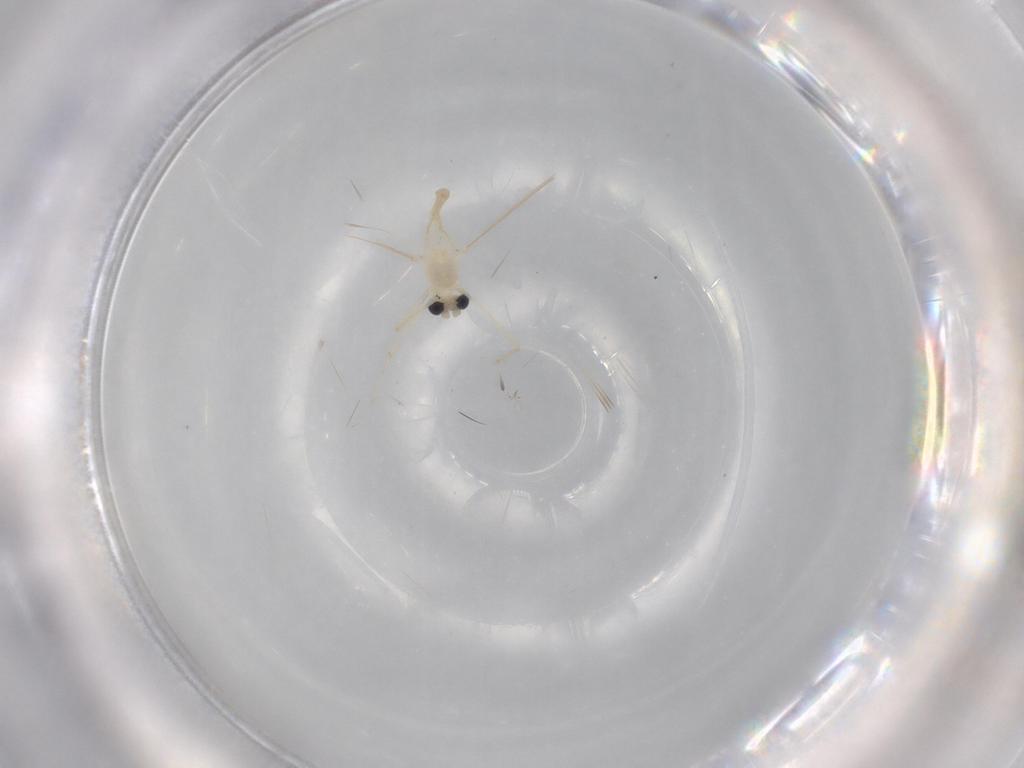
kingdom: Animalia
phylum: Arthropoda
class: Insecta
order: Diptera
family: Chironomidae
